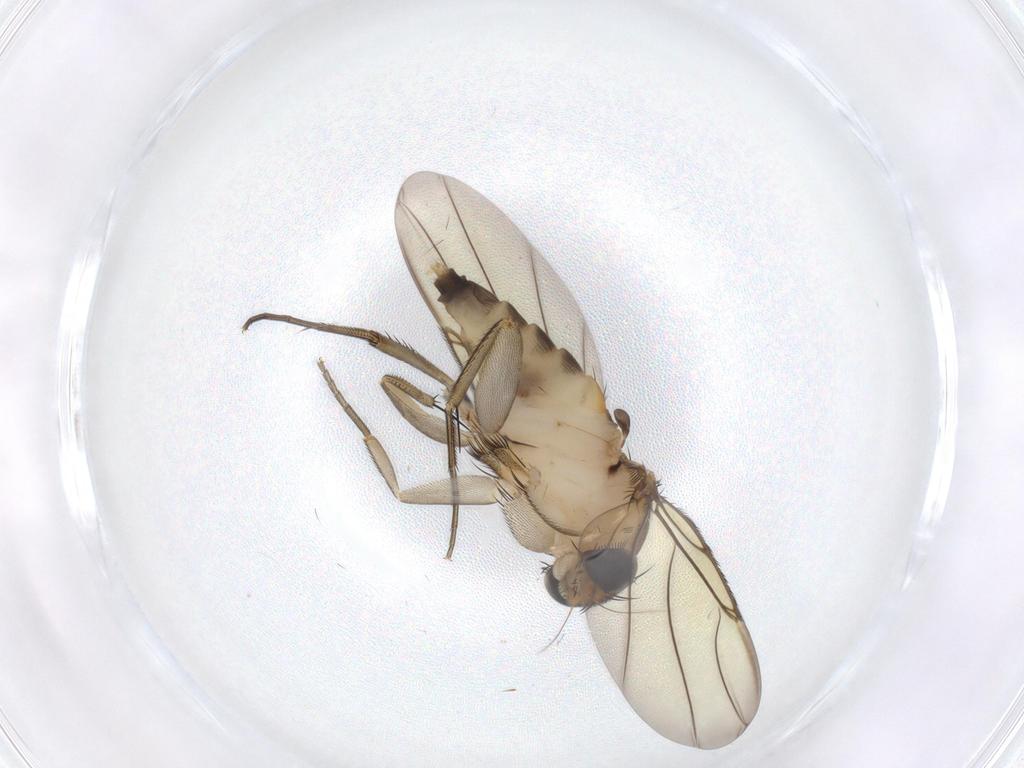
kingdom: Animalia
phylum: Arthropoda
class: Insecta
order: Diptera
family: Phoridae
